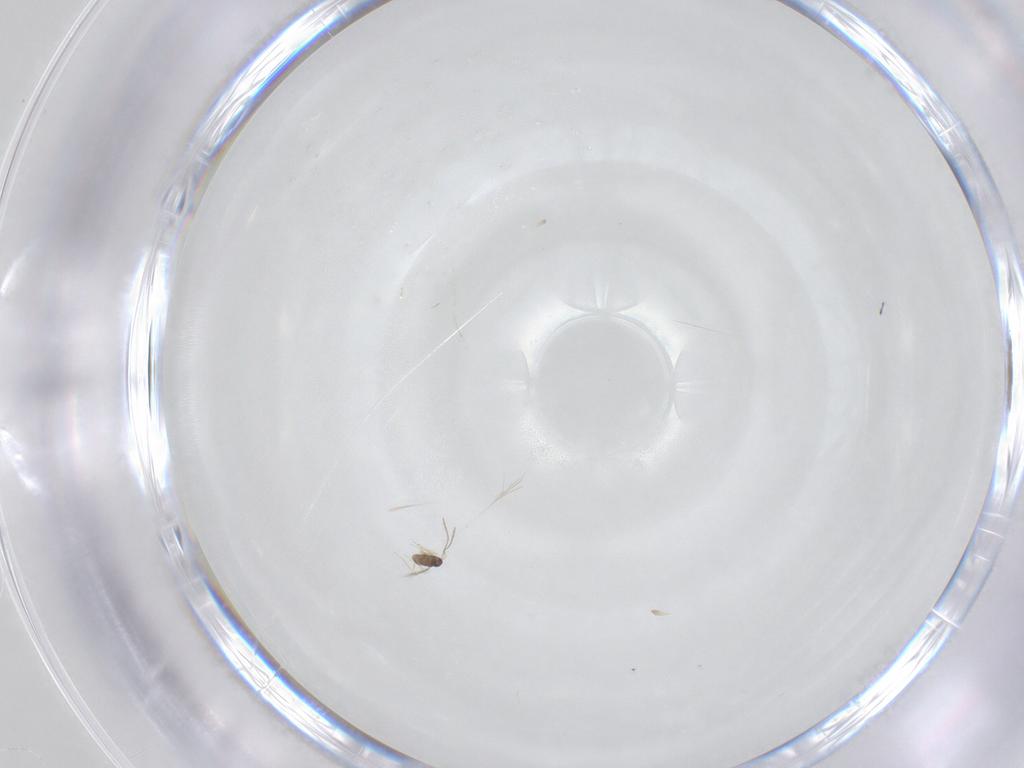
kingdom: Animalia
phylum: Arthropoda
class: Insecta
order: Hymenoptera
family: Mymaridae
